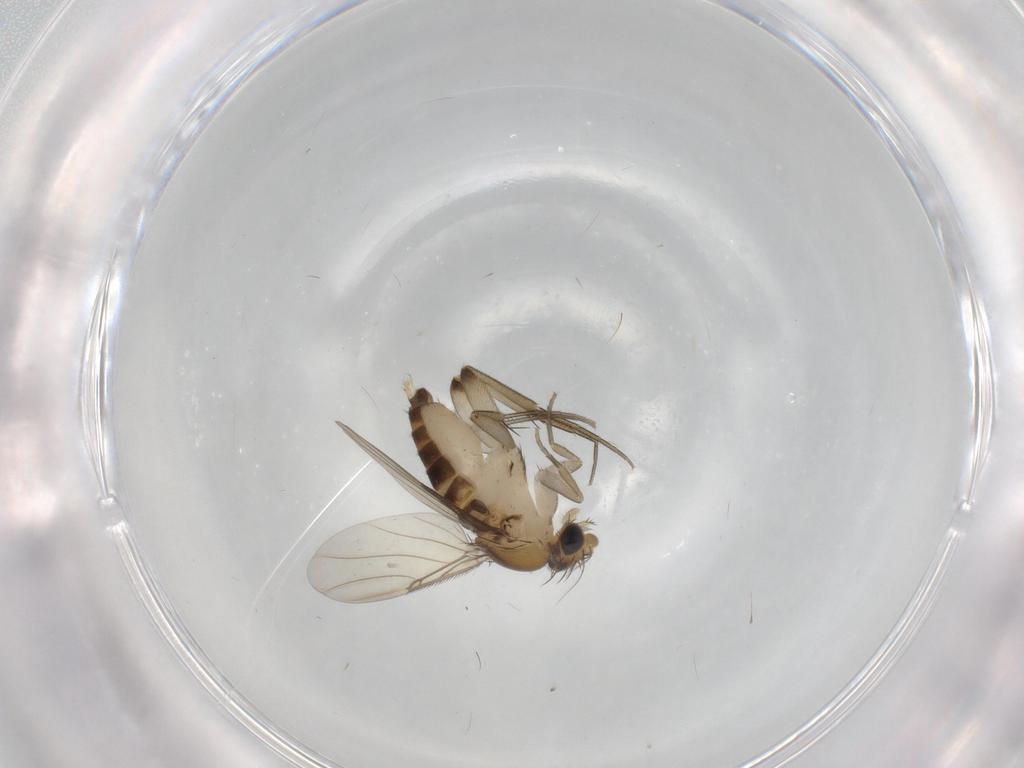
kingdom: Animalia
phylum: Arthropoda
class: Insecta
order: Diptera
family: Phoridae
